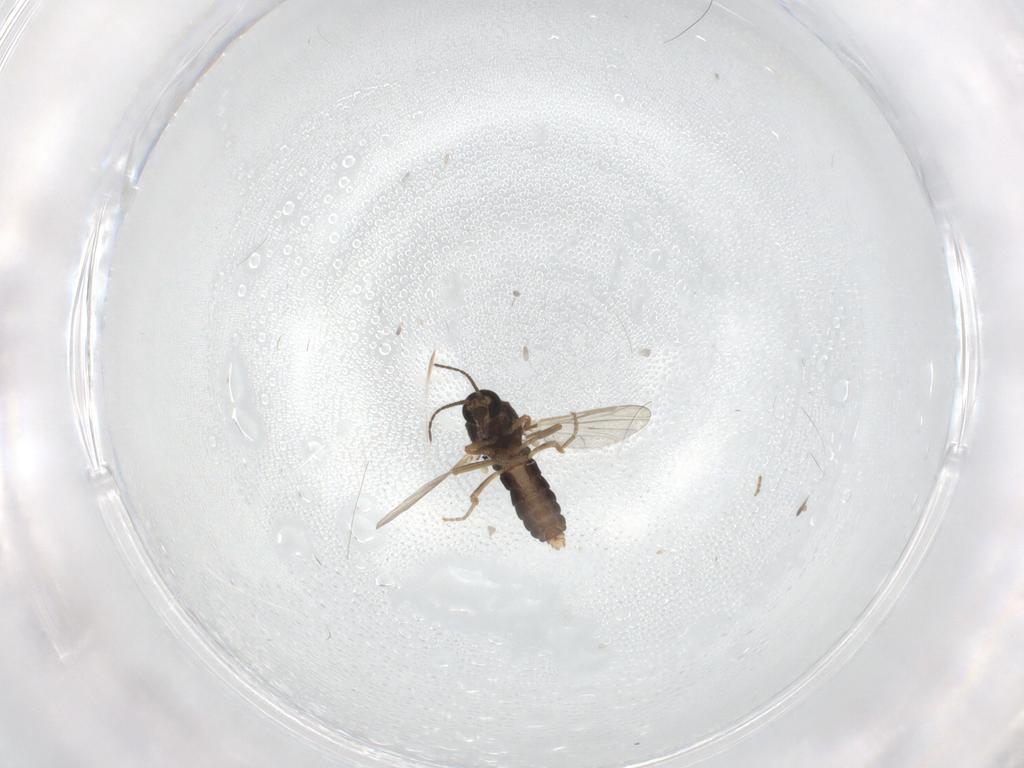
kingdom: Animalia
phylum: Arthropoda
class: Insecta
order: Diptera
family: Ceratopogonidae
